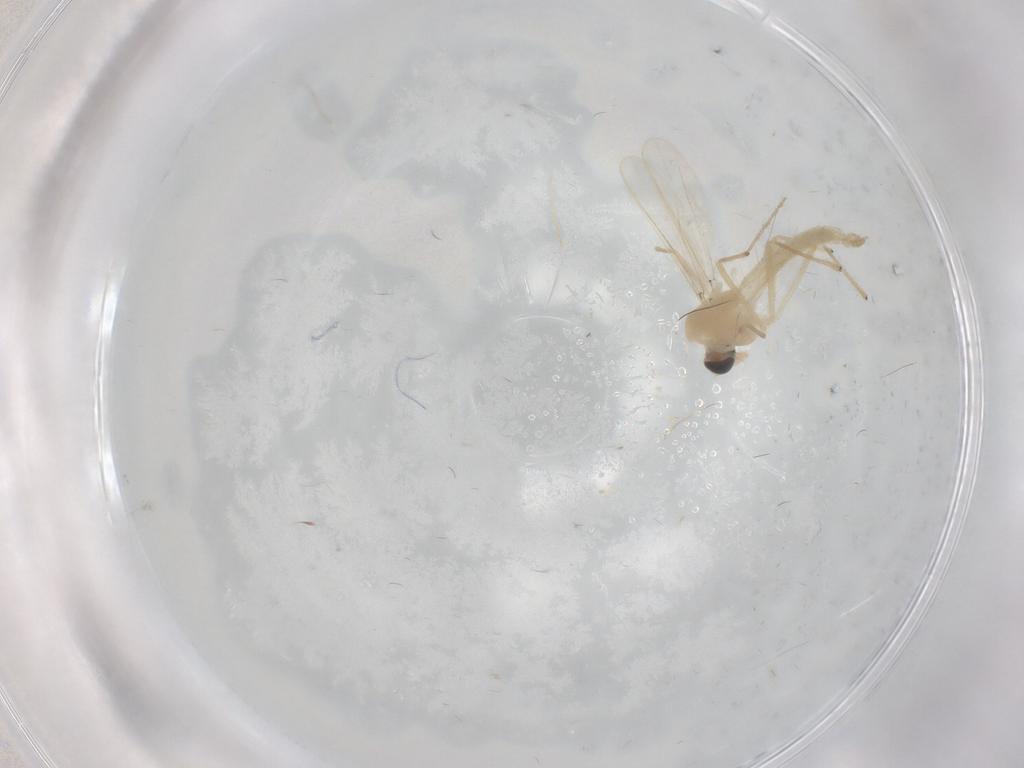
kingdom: Animalia
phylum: Arthropoda
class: Insecta
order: Diptera
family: Chironomidae
